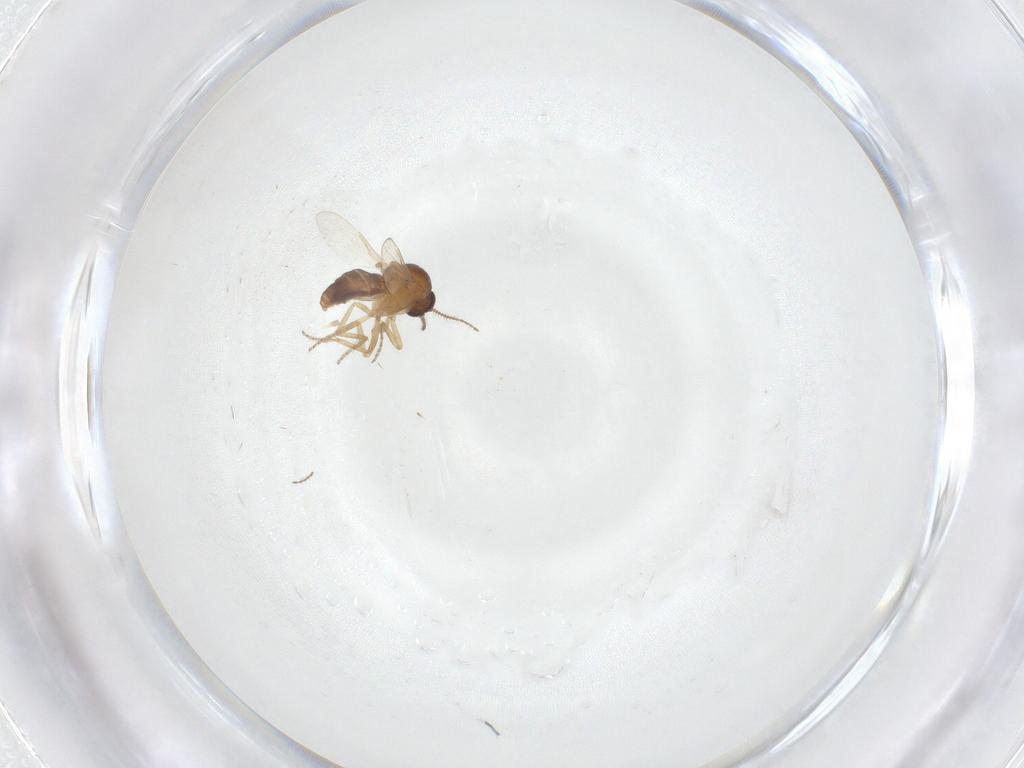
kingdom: Animalia
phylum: Arthropoda
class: Insecta
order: Diptera
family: Ceratopogonidae
